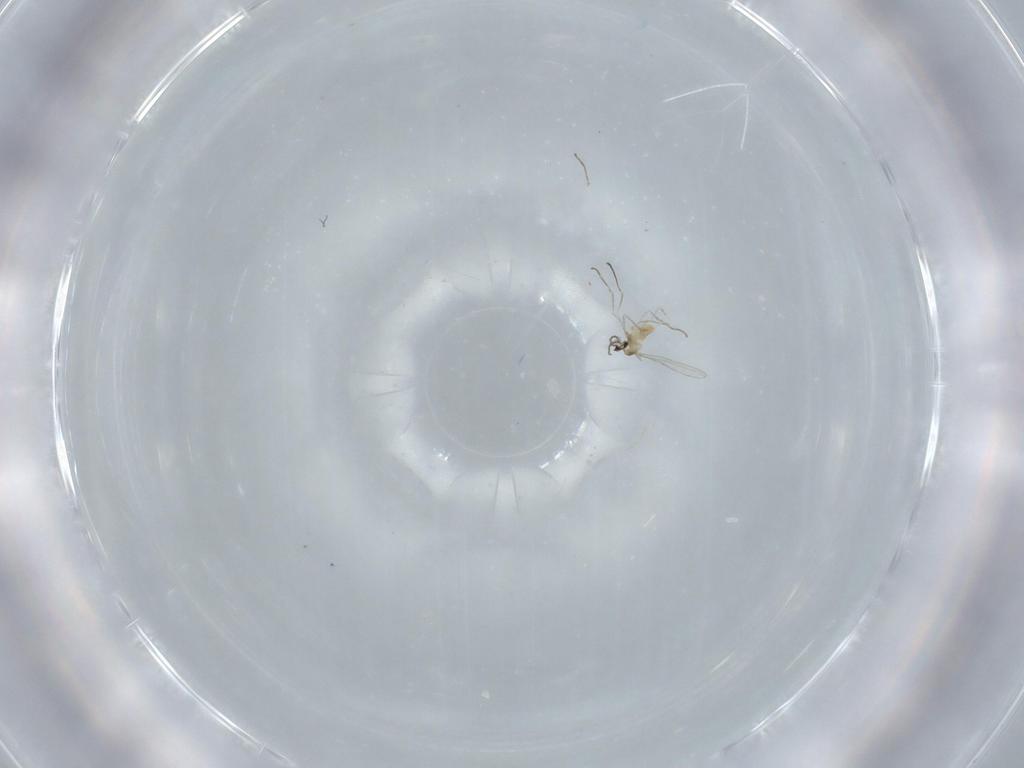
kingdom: Animalia
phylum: Arthropoda
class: Insecta
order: Diptera
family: Cecidomyiidae
